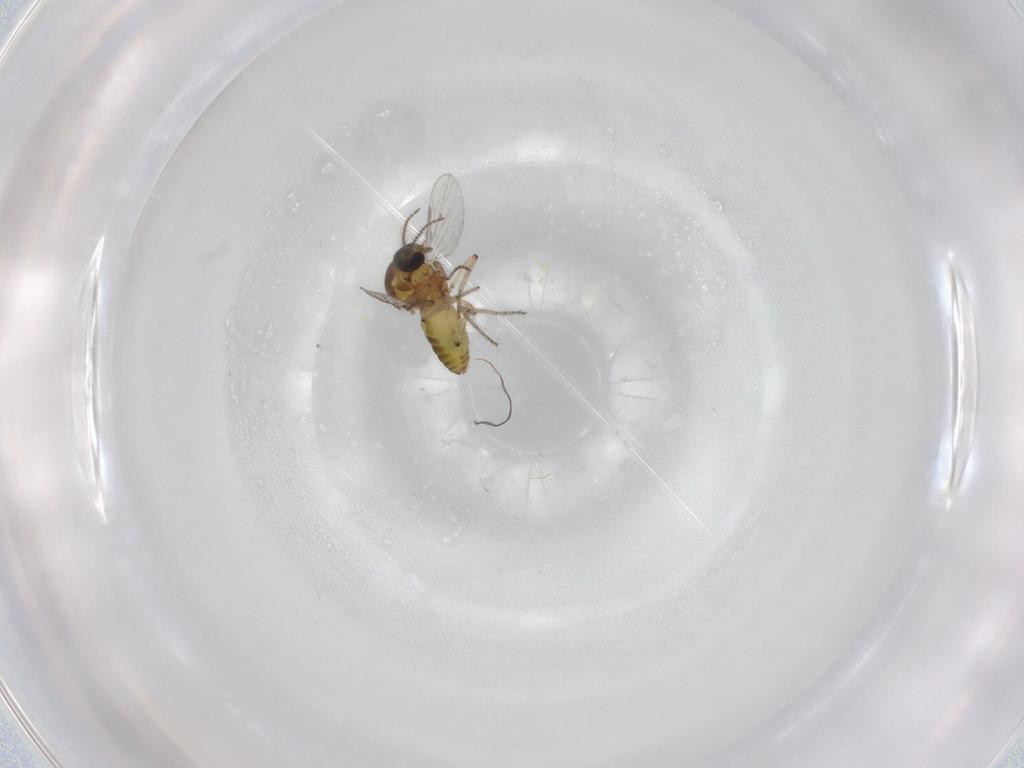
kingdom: Animalia
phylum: Arthropoda
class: Insecta
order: Diptera
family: Ceratopogonidae
